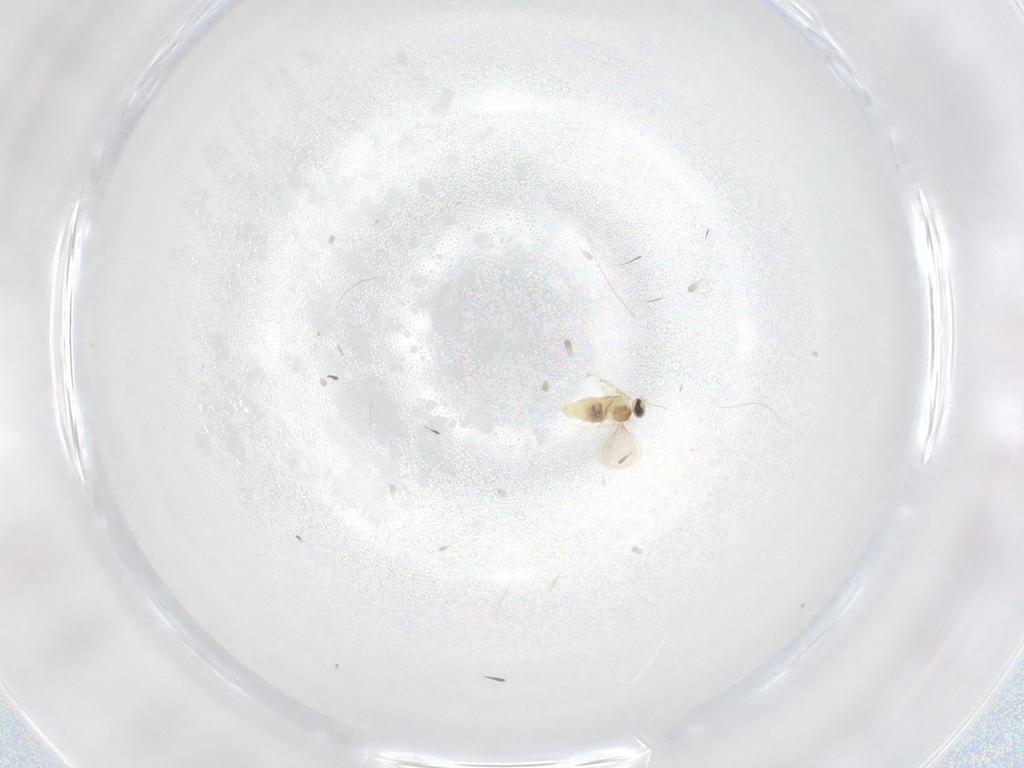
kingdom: Animalia
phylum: Arthropoda
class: Insecta
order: Diptera
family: Cecidomyiidae
